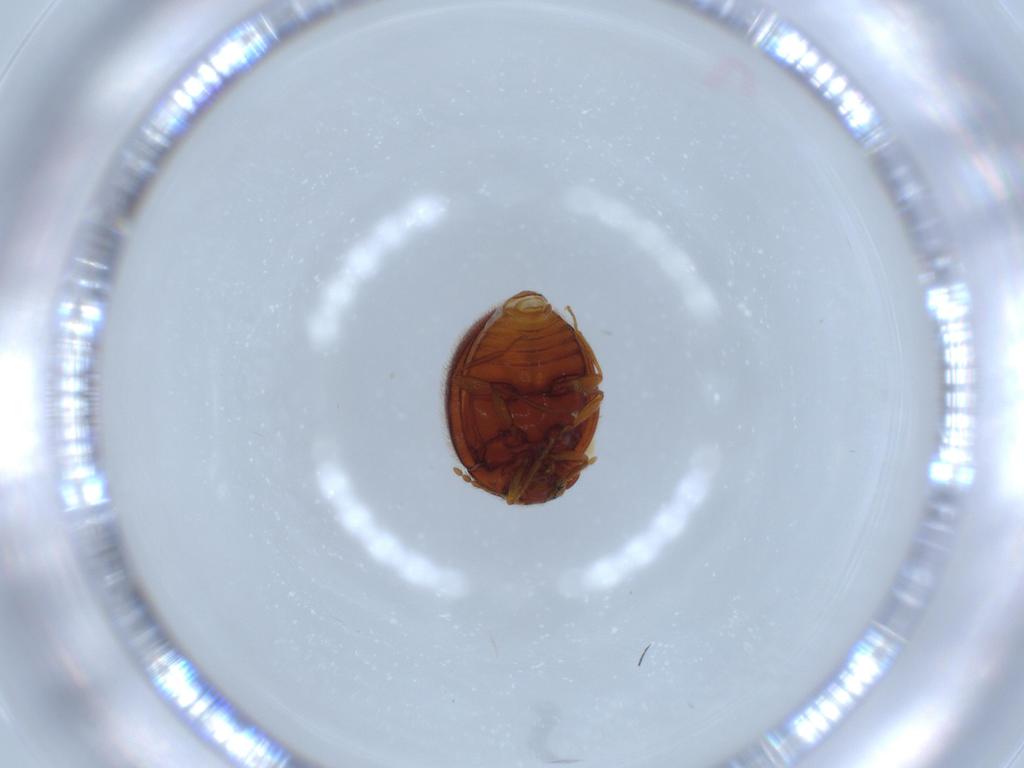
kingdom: Animalia
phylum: Arthropoda
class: Insecta
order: Coleoptera
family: Anamorphidae
